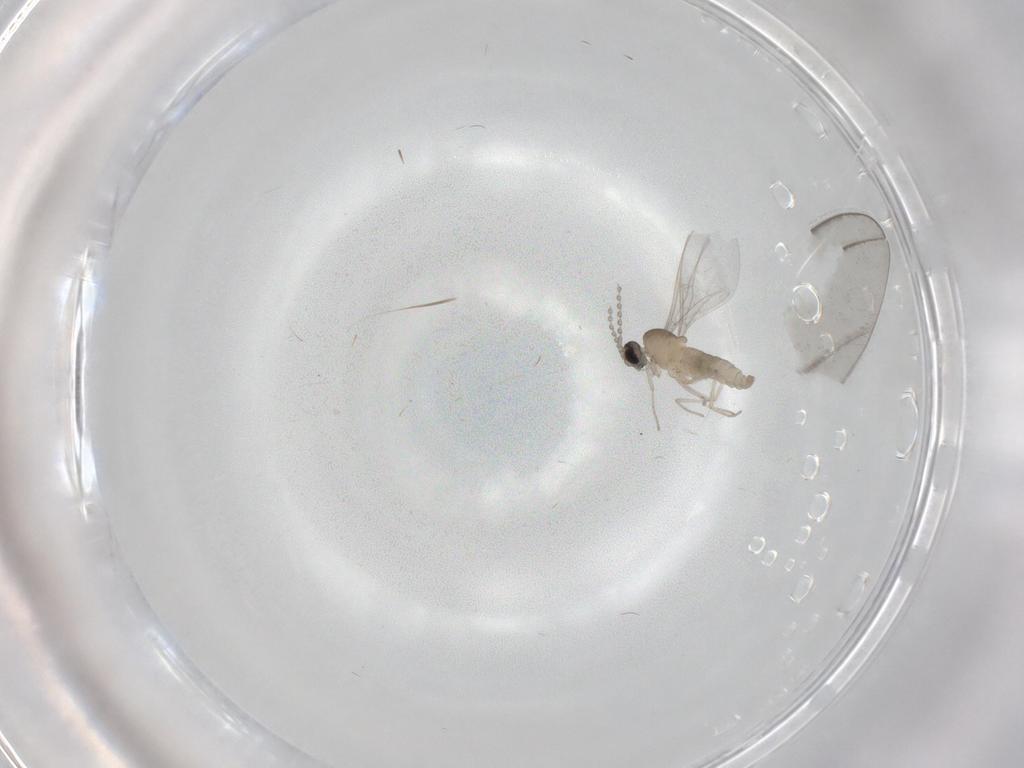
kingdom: Animalia
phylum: Arthropoda
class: Insecta
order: Diptera
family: Cecidomyiidae
